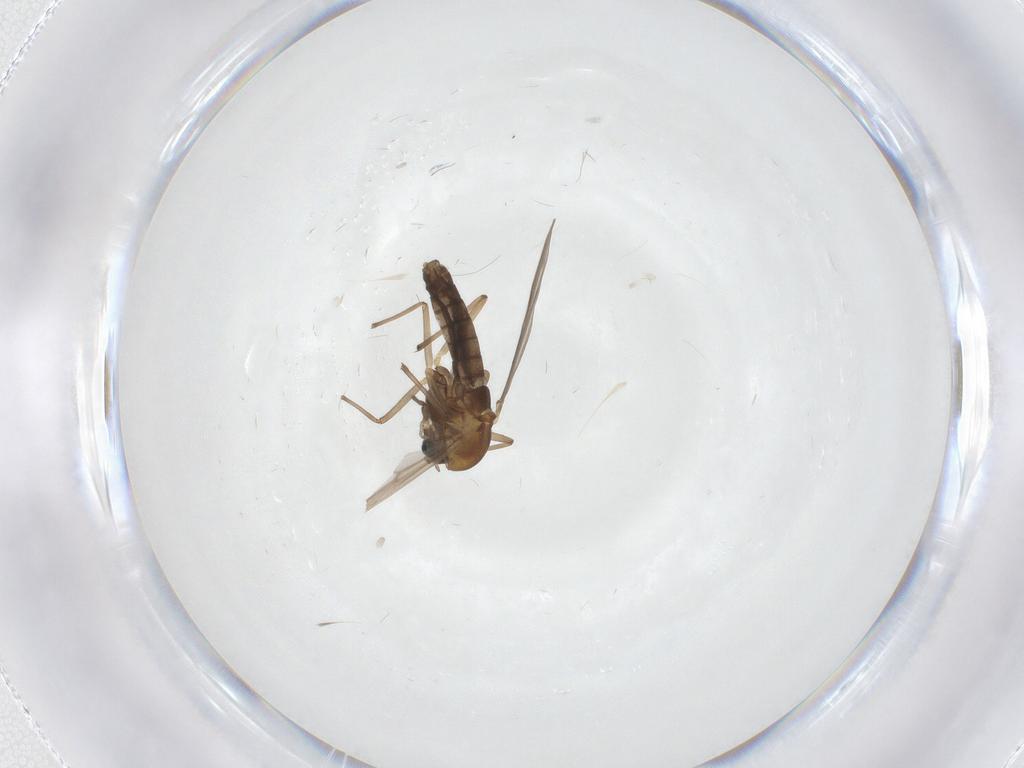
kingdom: Animalia
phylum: Arthropoda
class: Insecta
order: Diptera
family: Chironomidae
